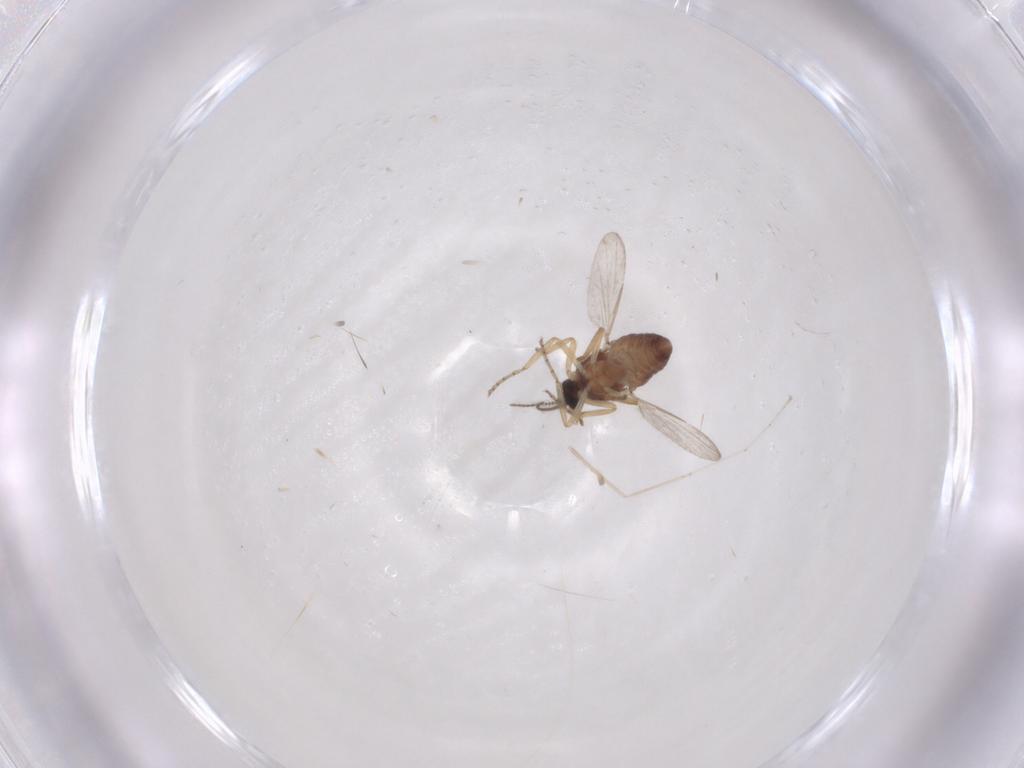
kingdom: Animalia
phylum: Arthropoda
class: Insecta
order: Diptera
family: Ceratopogonidae
